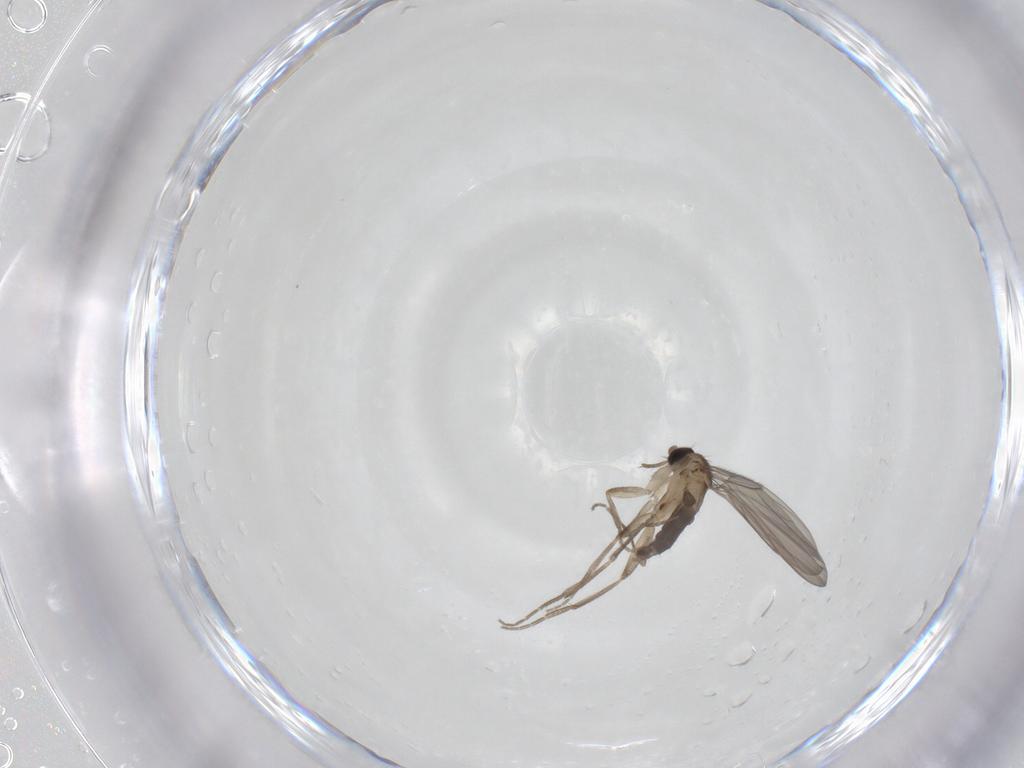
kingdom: Animalia
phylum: Arthropoda
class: Insecta
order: Diptera
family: Phoridae
